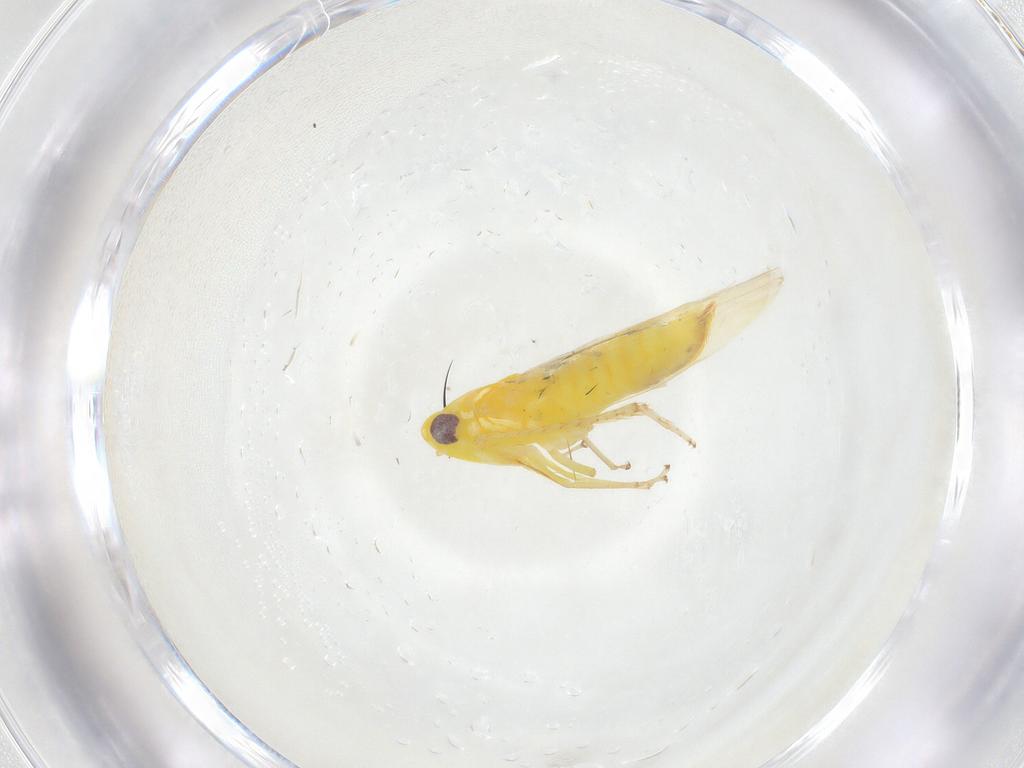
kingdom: Animalia
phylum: Arthropoda
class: Insecta
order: Hemiptera
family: Cicadellidae
